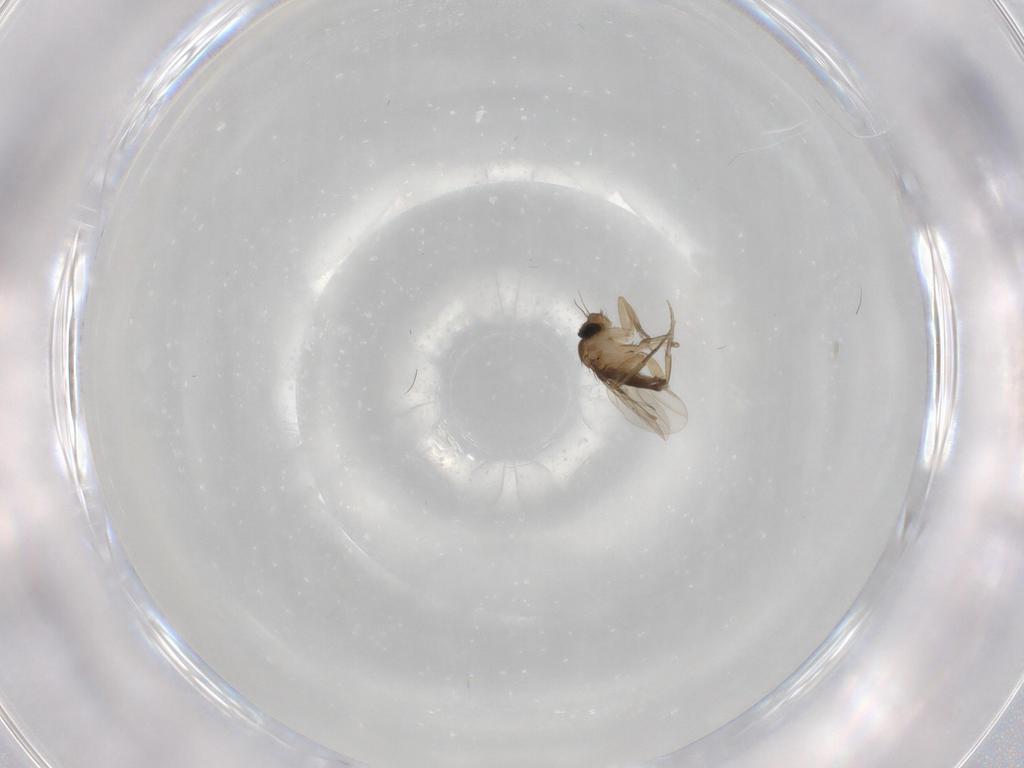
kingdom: Animalia
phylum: Arthropoda
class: Insecta
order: Diptera
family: Phoridae
